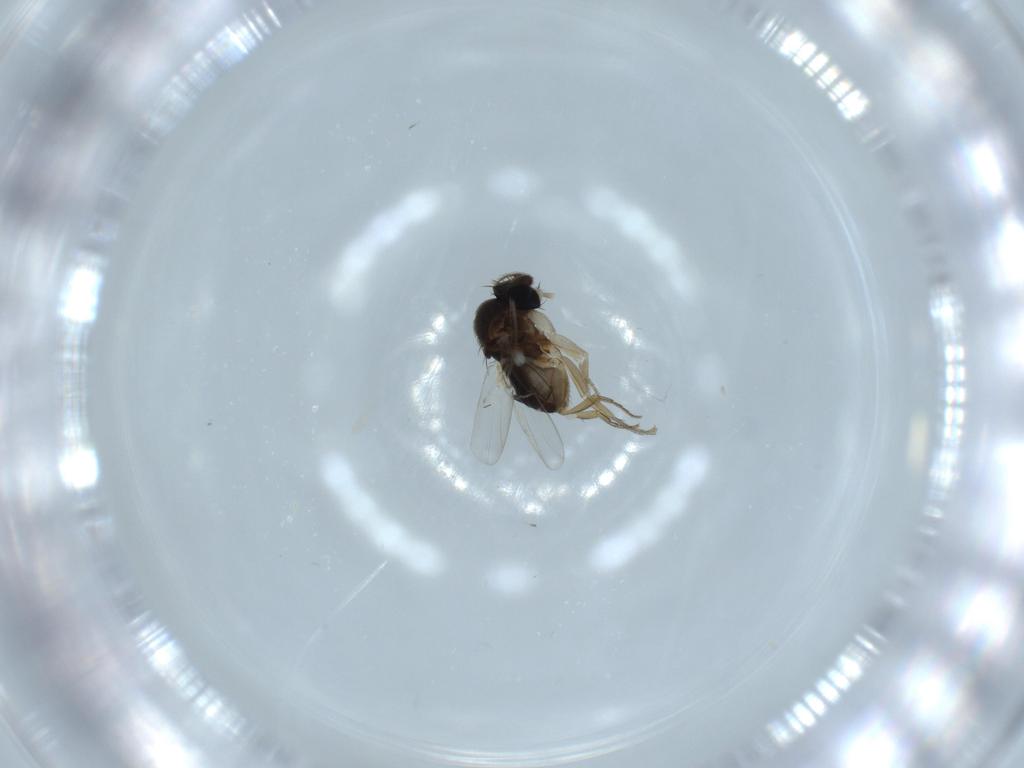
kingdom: Animalia
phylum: Arthropoda
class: Insecta
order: Diptera
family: Phoridae
